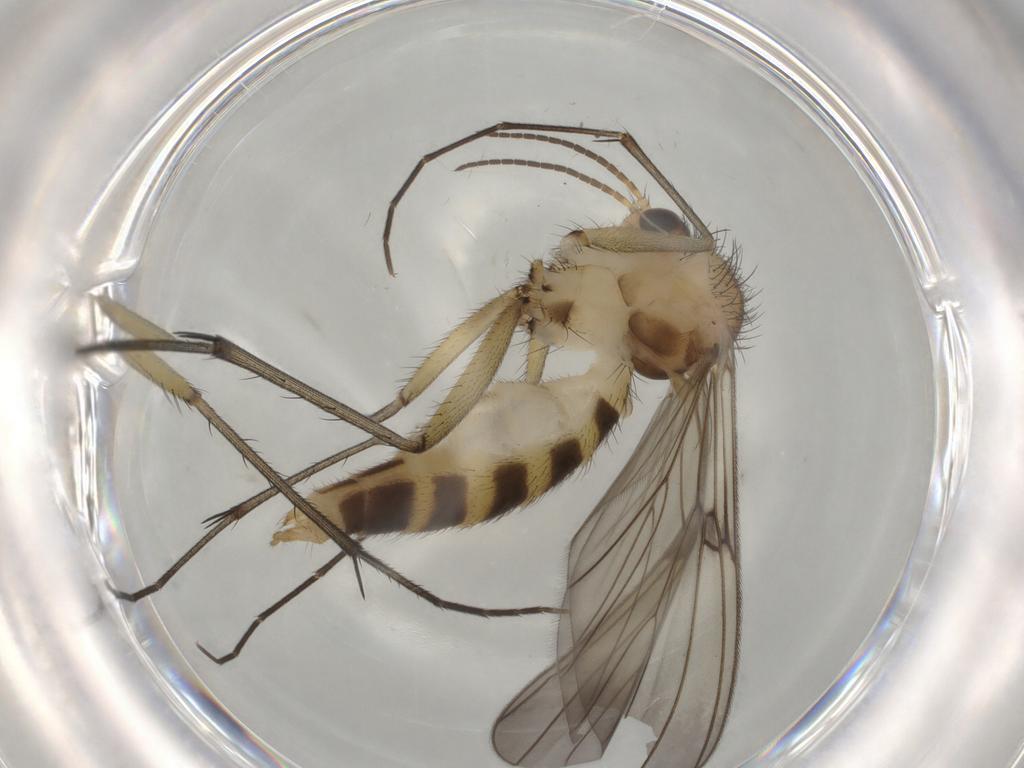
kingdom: Animalia
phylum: Arthropoda
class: Insecta
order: Diptera
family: Mycetophilidae
